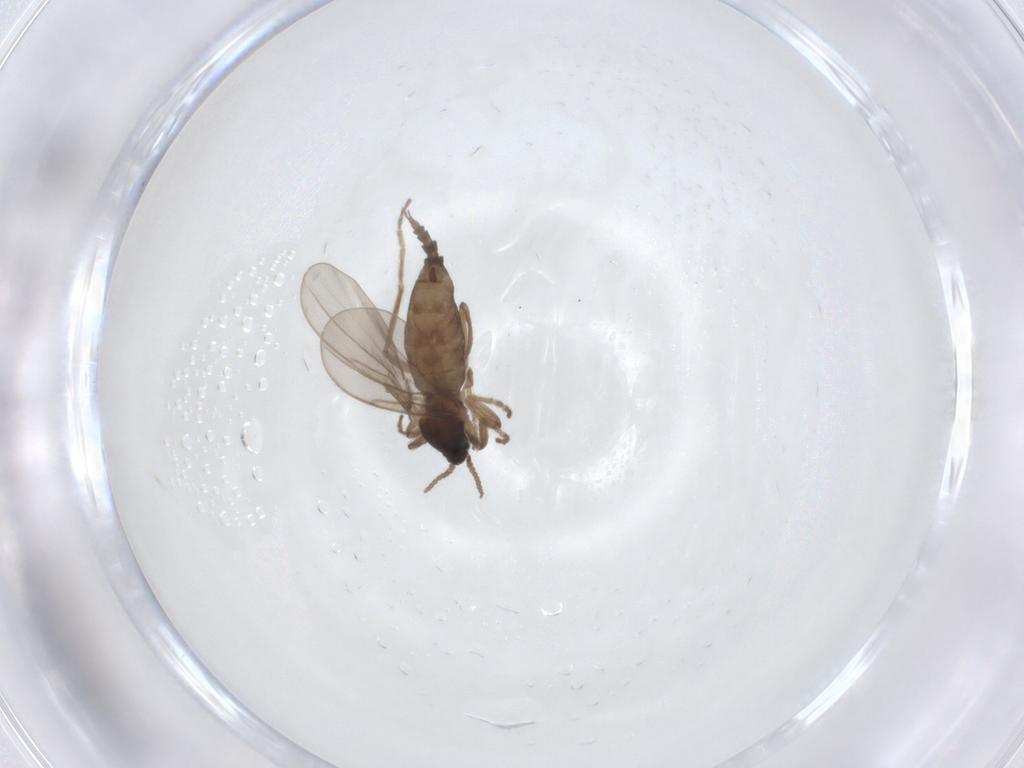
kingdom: Animalia
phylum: Arthropoda
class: Insecta
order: Diptera
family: Cecidomyiidae
